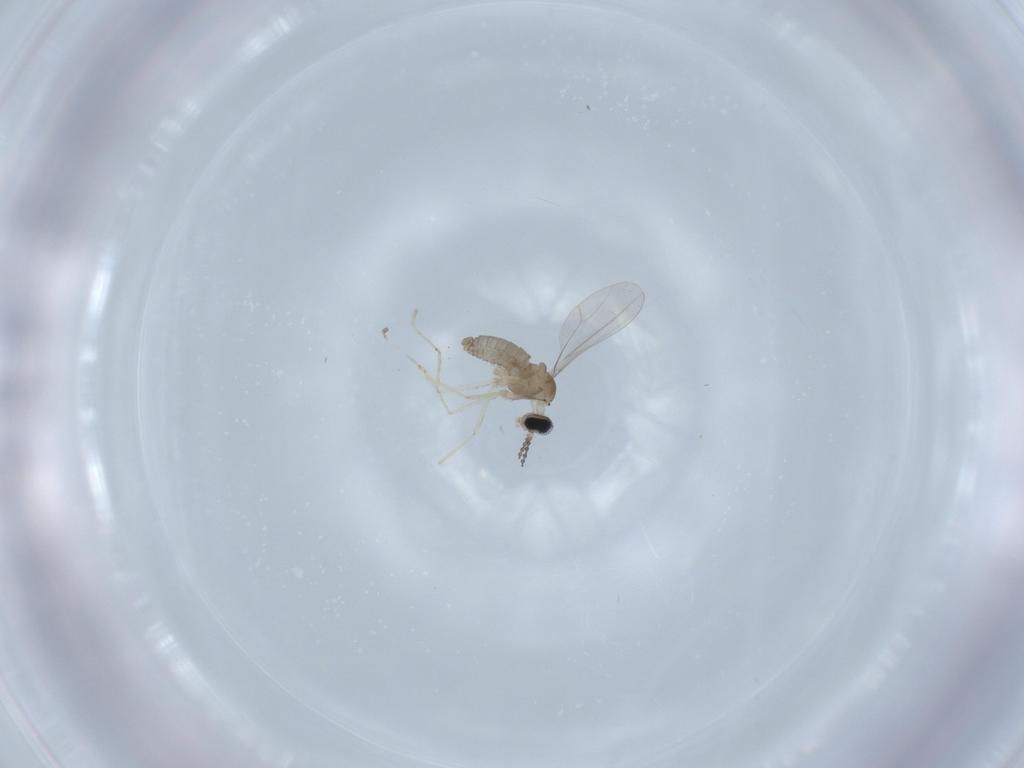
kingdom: Animalia
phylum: Arthropoda
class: Insecta
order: Diptera
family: Cecidomyiidae
